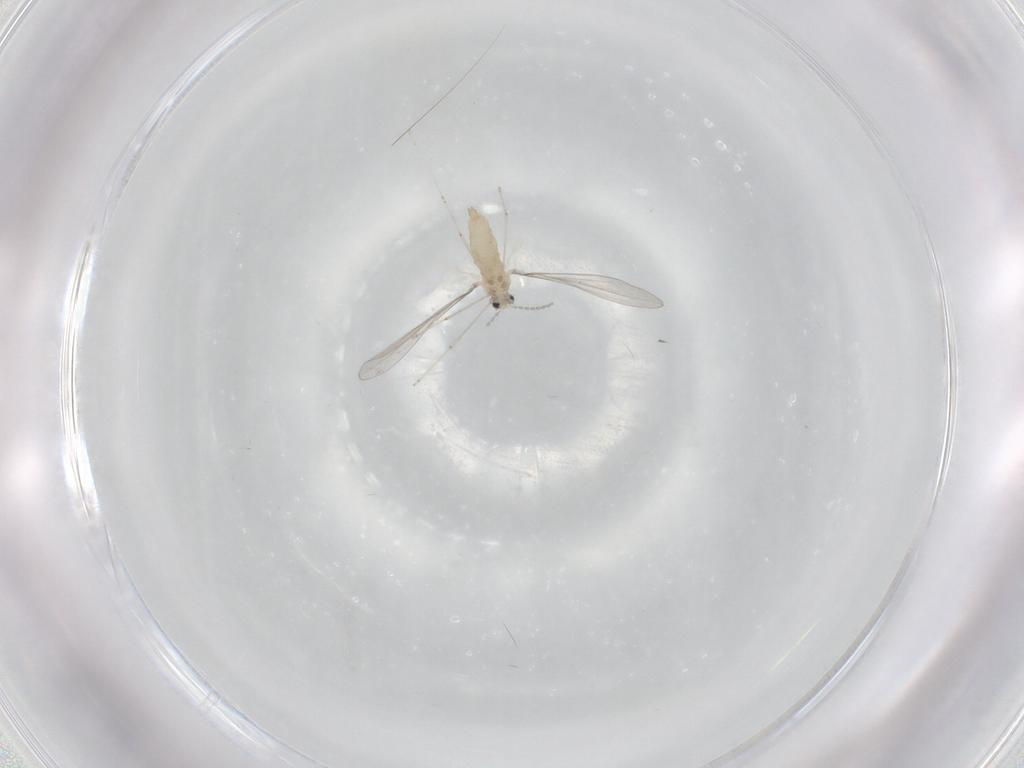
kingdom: Animalia
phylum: Arthropoda
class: Insecta
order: Diptera
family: Cecidomyiidae
